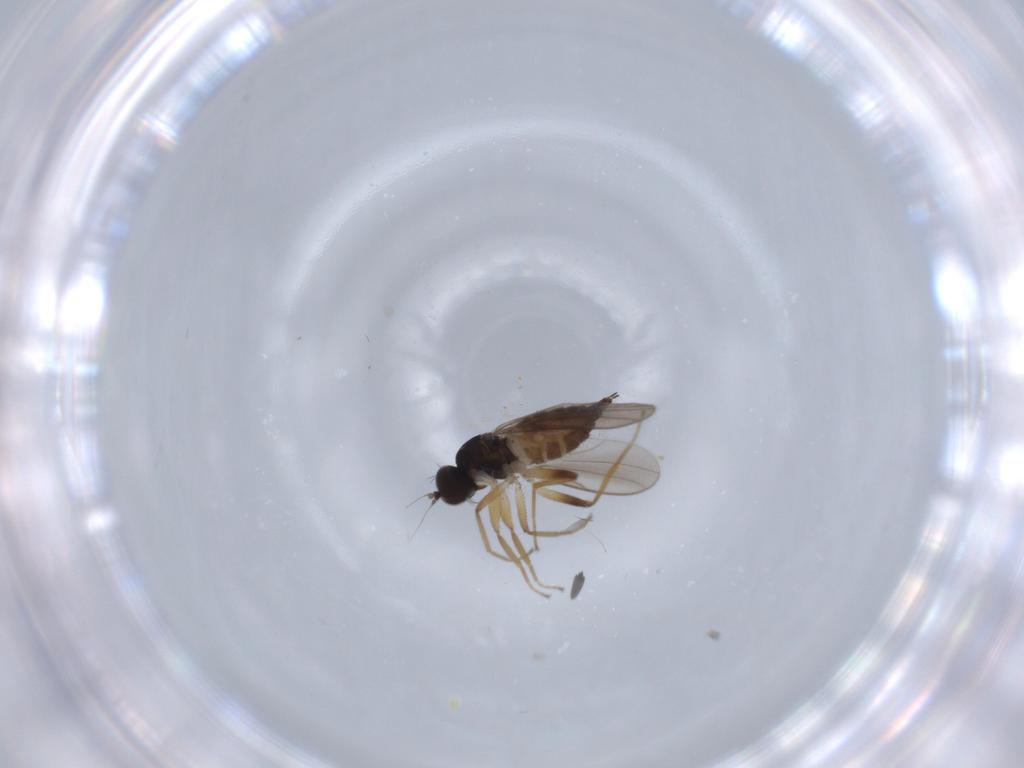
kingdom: Animalia
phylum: Arthropoda
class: Insecta
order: Diptera
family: Hybotidae
